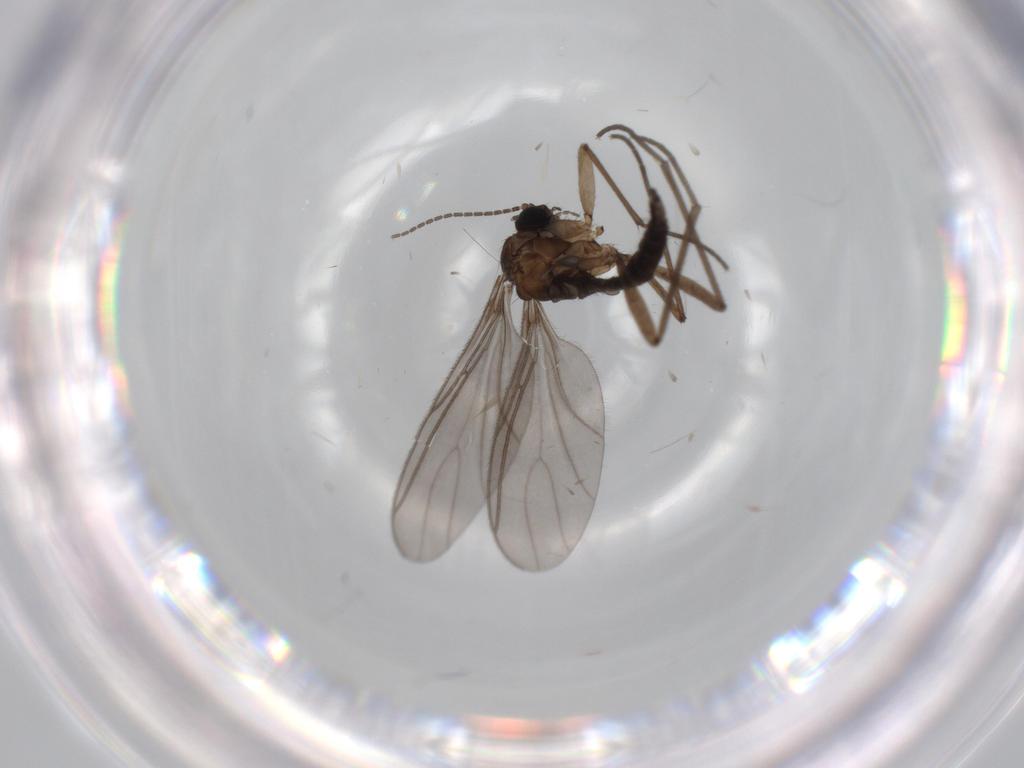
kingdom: Animalia
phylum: Arthropoda
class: Insecta
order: Diptera
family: Sciaridae
